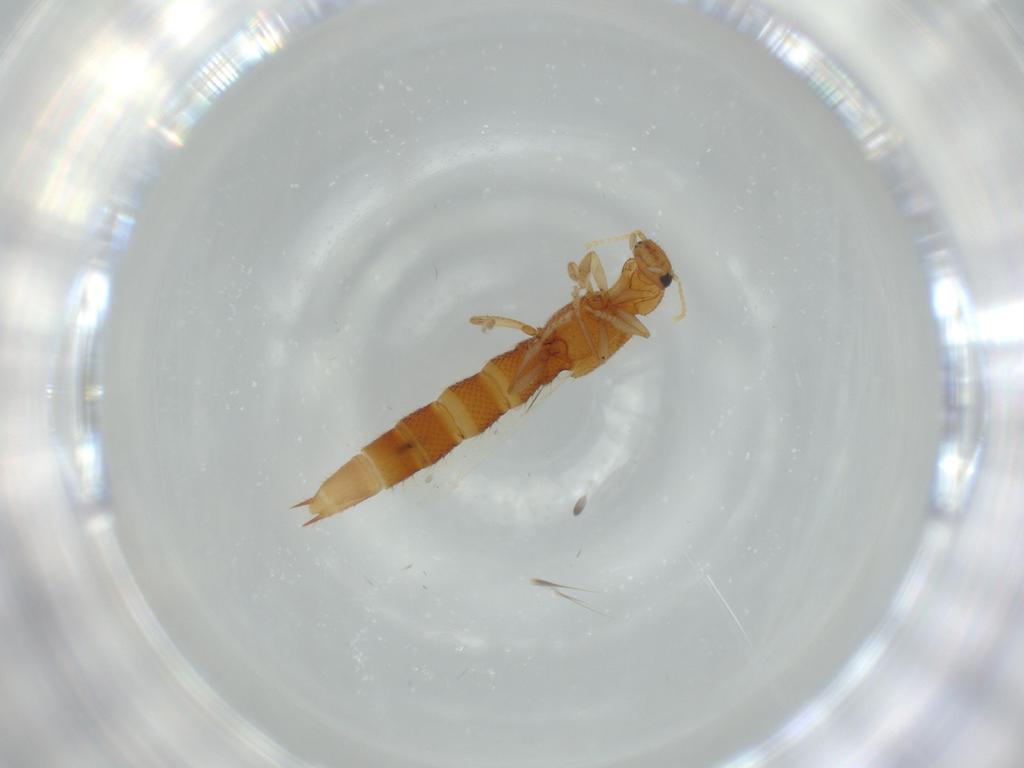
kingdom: Animalia
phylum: Arthropoda
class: Insecta
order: Coleoptera
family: Staphylinidae
